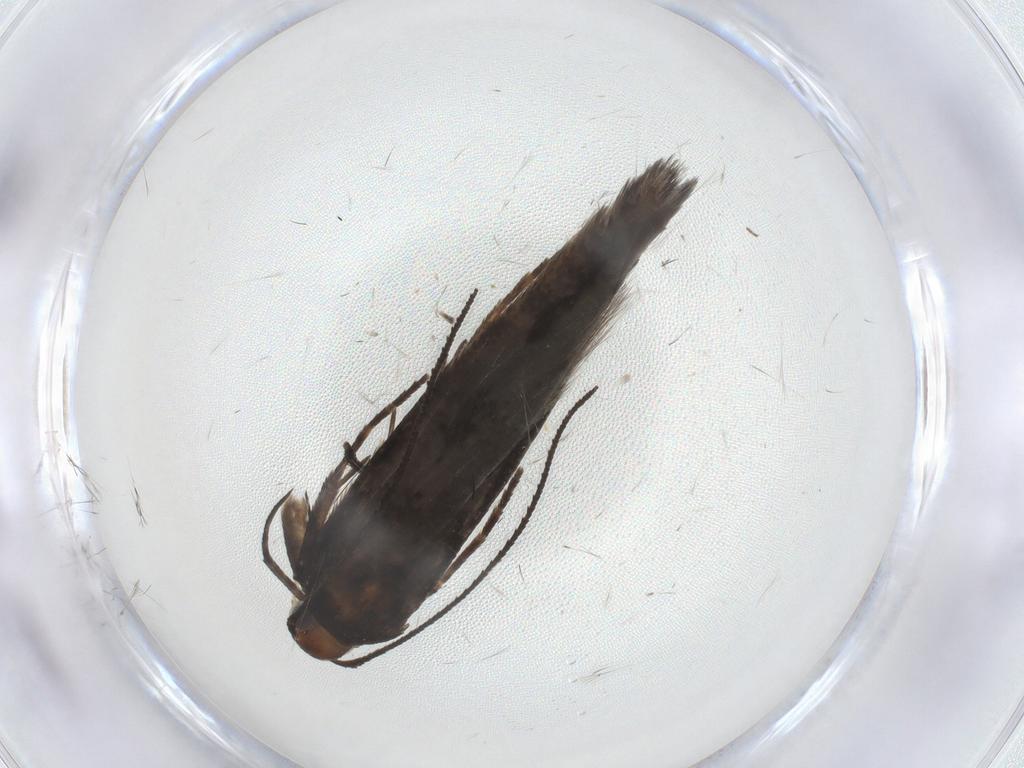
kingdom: Animalia
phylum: Arthropoda
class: Insecta
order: Lepidoptera
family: Gelechiidae
